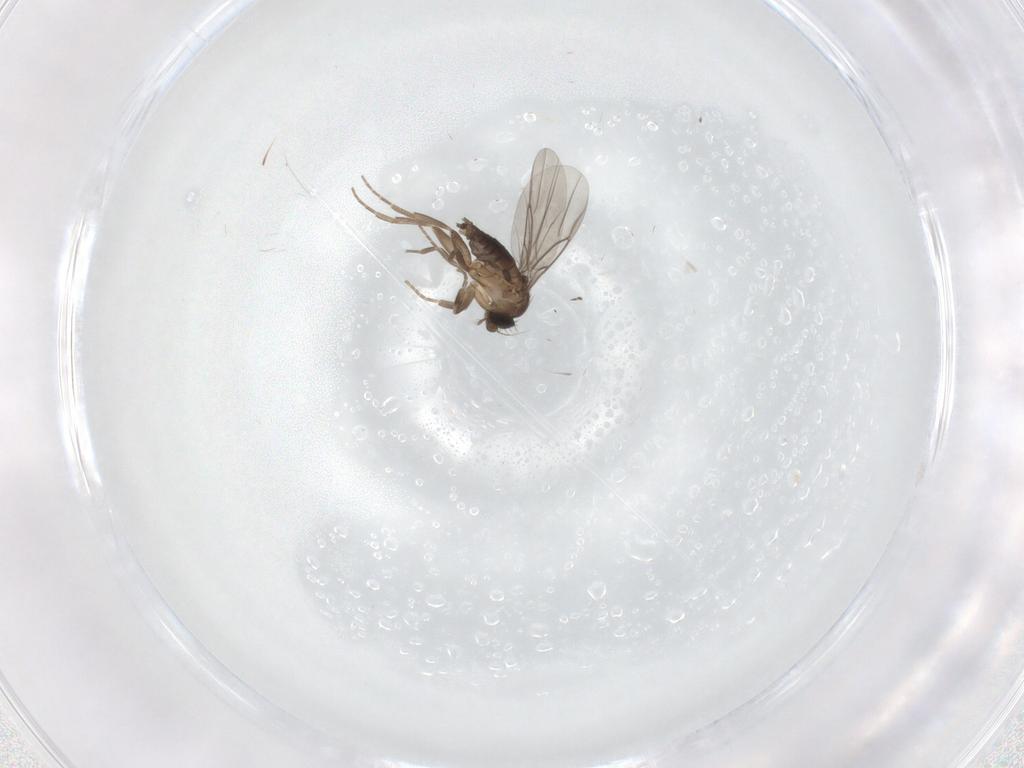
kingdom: Animalia
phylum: Arthropoda
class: Insecta
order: Diptera
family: Phoridae
